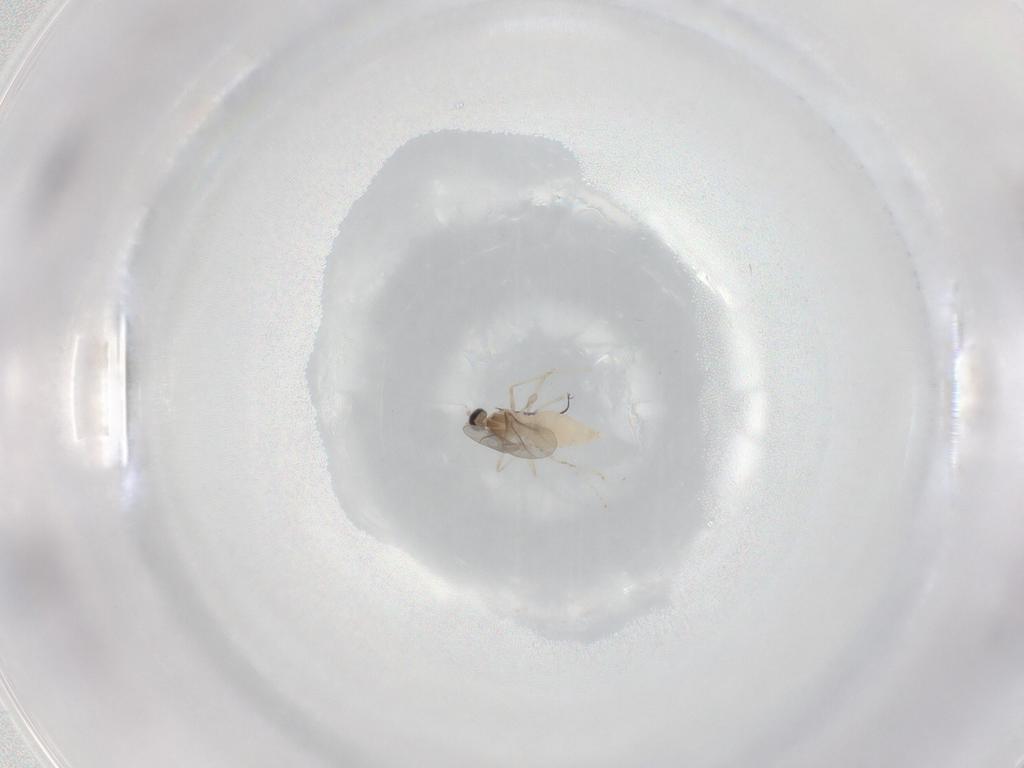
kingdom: Animalia
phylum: Arthropoda
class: Insecta
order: Diptera
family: Cecidomyiidae
